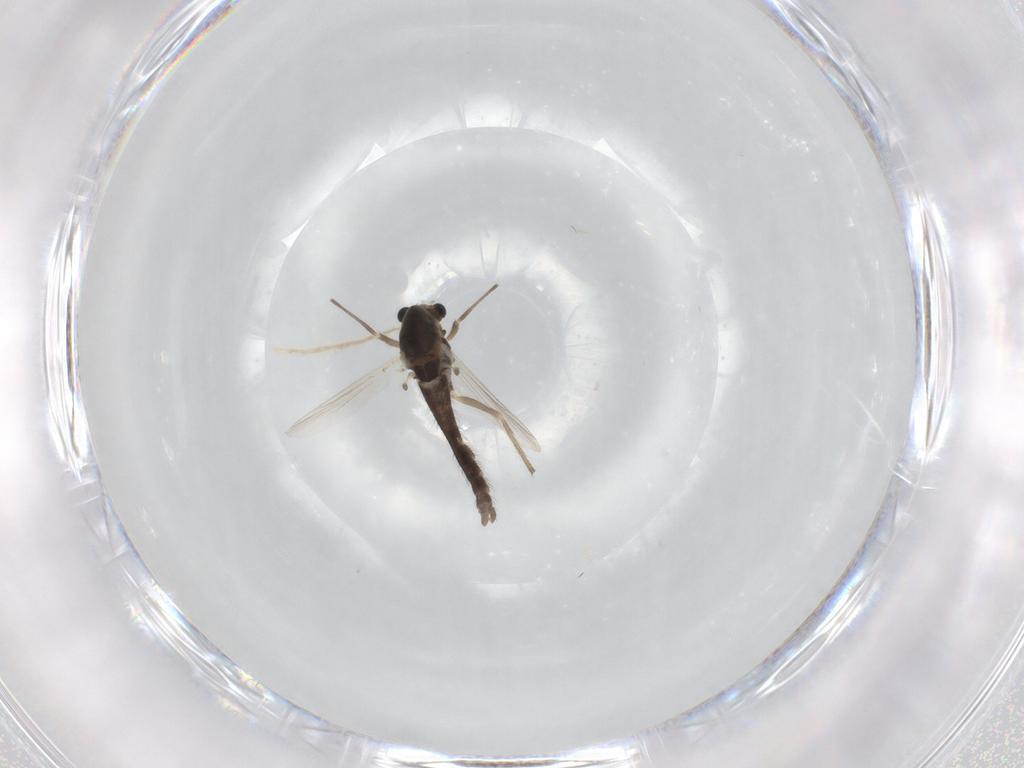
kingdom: Animalia
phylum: Arthropoda
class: Insecta
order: Diptera
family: Chironomidae
